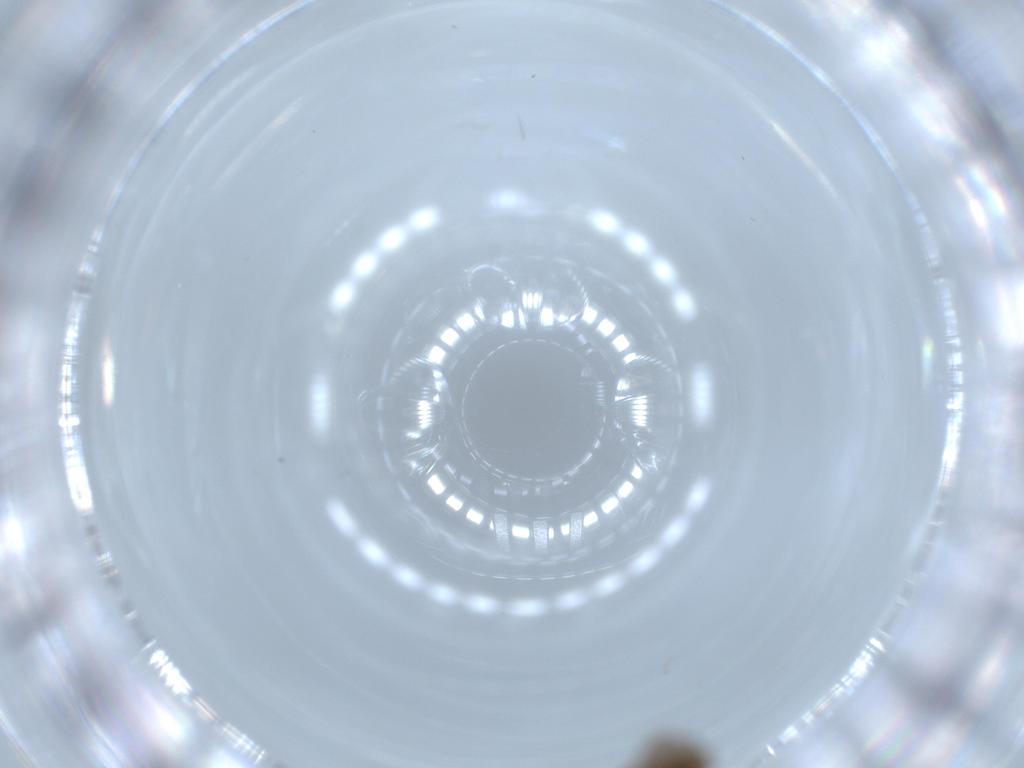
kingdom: Animalia
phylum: Arthropoda
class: Insecta
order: Diptera
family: Psychodidae
